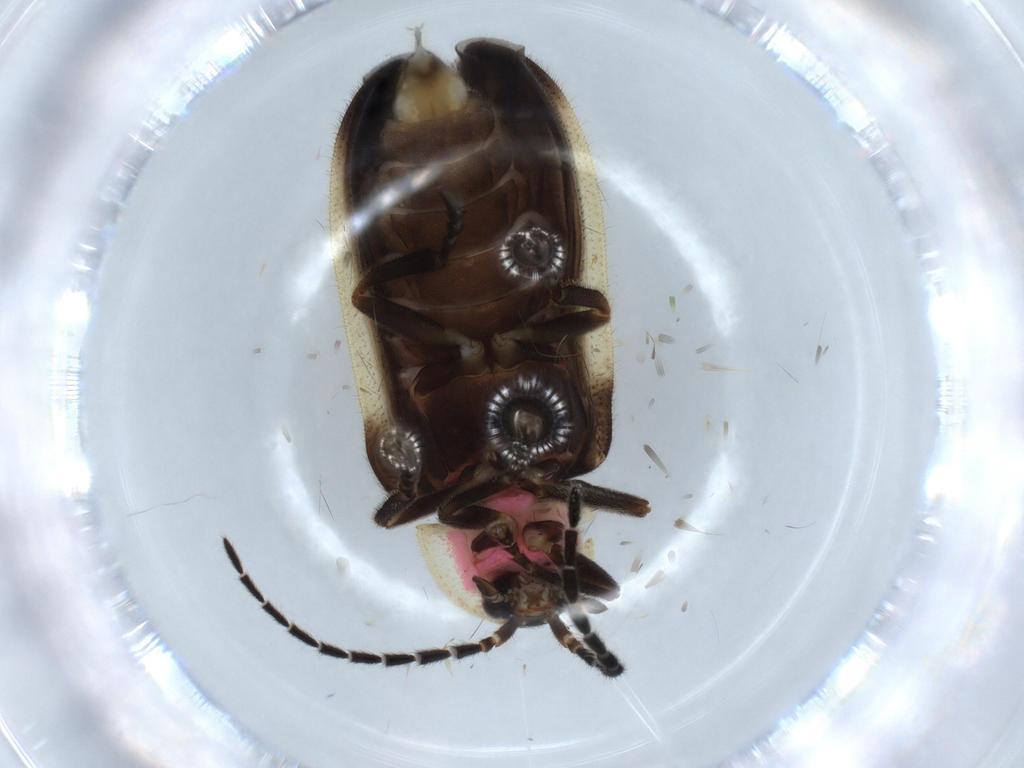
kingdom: Animalia
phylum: Arthropoda
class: Insecta
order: Coleoptera
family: Lampyridae
